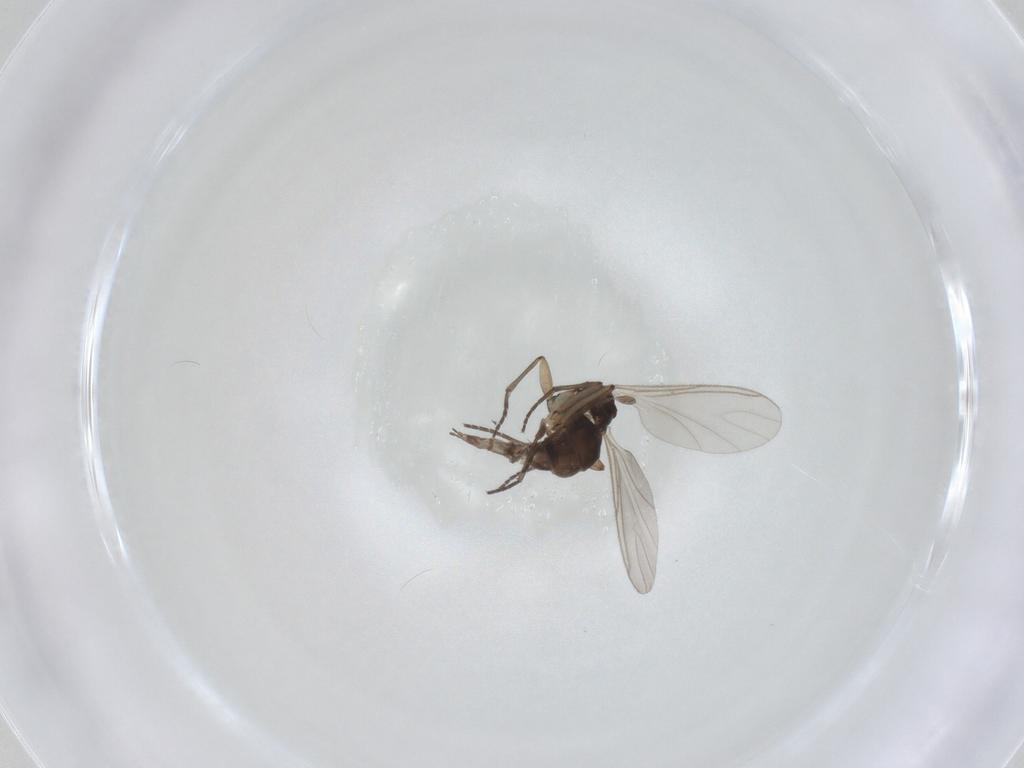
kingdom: Animalia
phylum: Arthropoda
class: Insecta
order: Diptera
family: Sciaridae
